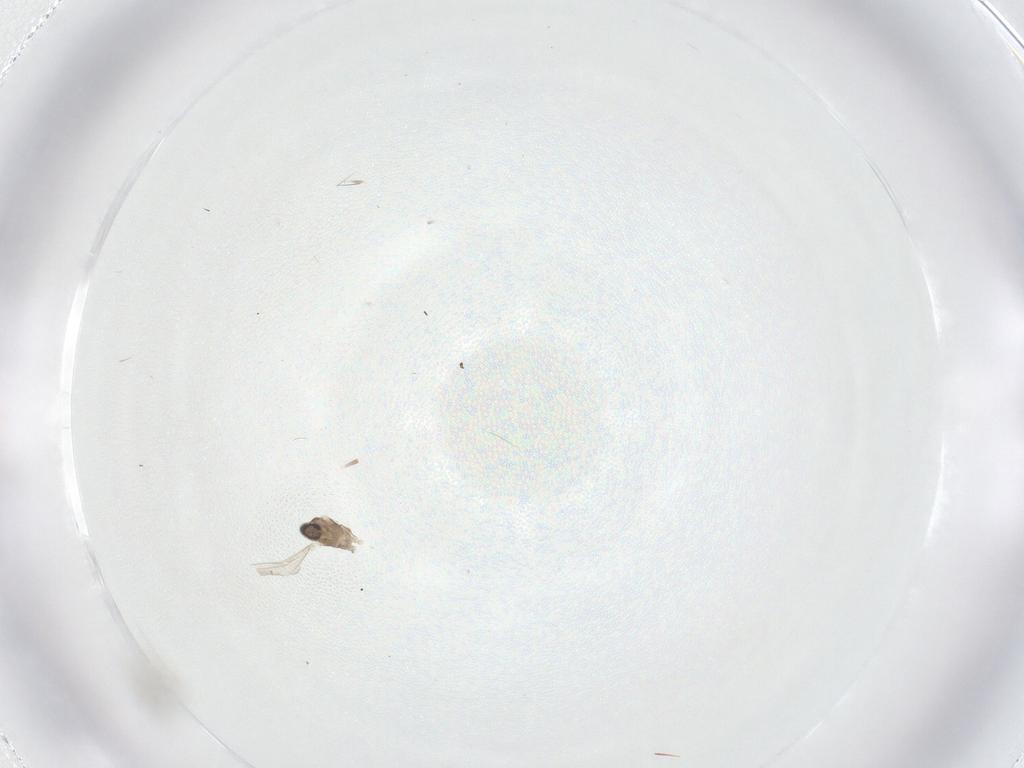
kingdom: Animalia
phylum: Arthropoda
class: Insecta
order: Diptera
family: Cecidomyiidae
